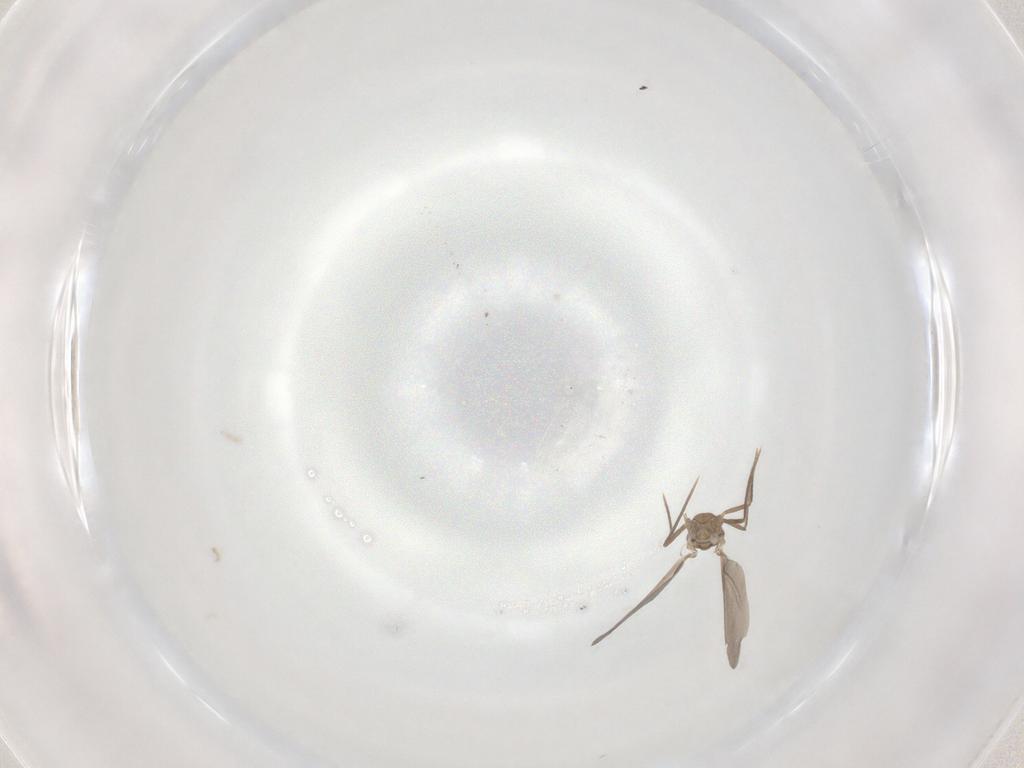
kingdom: Animalia
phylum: Arthropoda
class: Insecta
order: Diptera
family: Sciaridae
